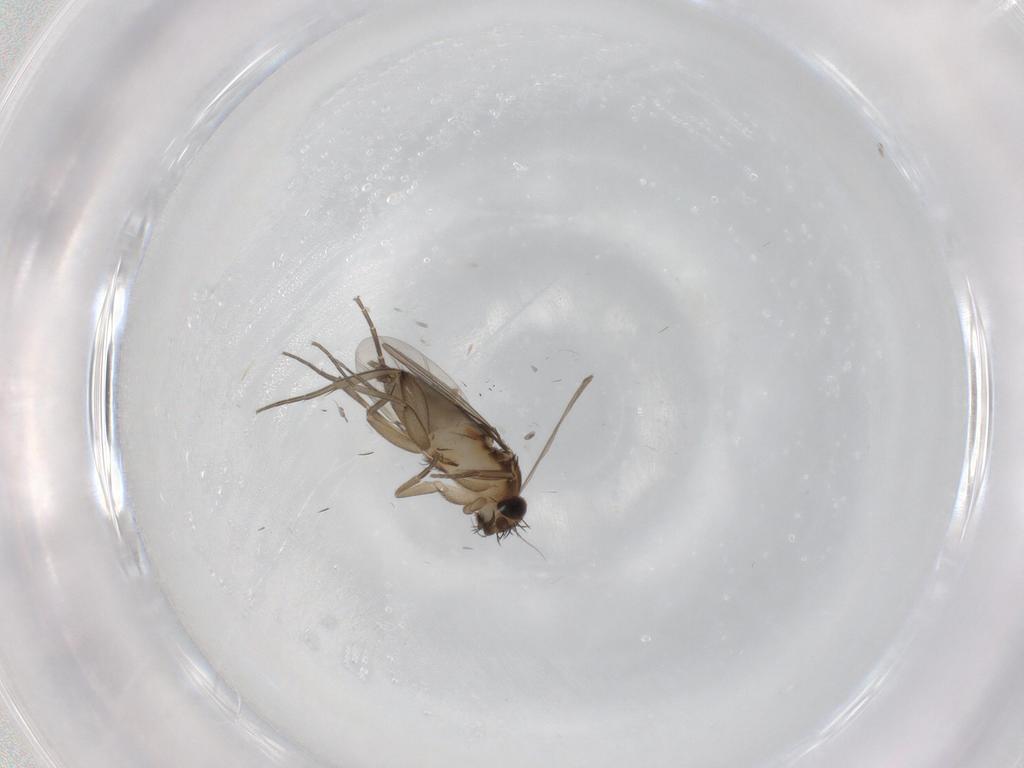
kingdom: Animalia
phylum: Arthropoda
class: Insecta
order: Diptera
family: Phoridae
